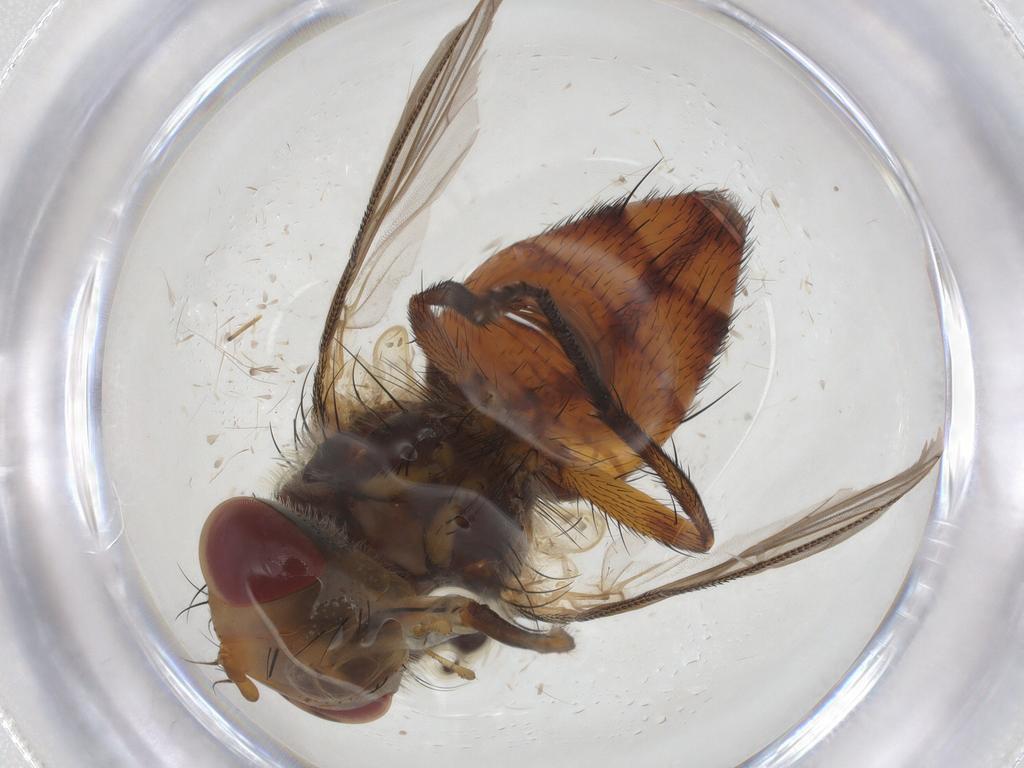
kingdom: Animalia
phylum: Arthropoda
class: Insecta
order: Diptera
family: Tachinidae
